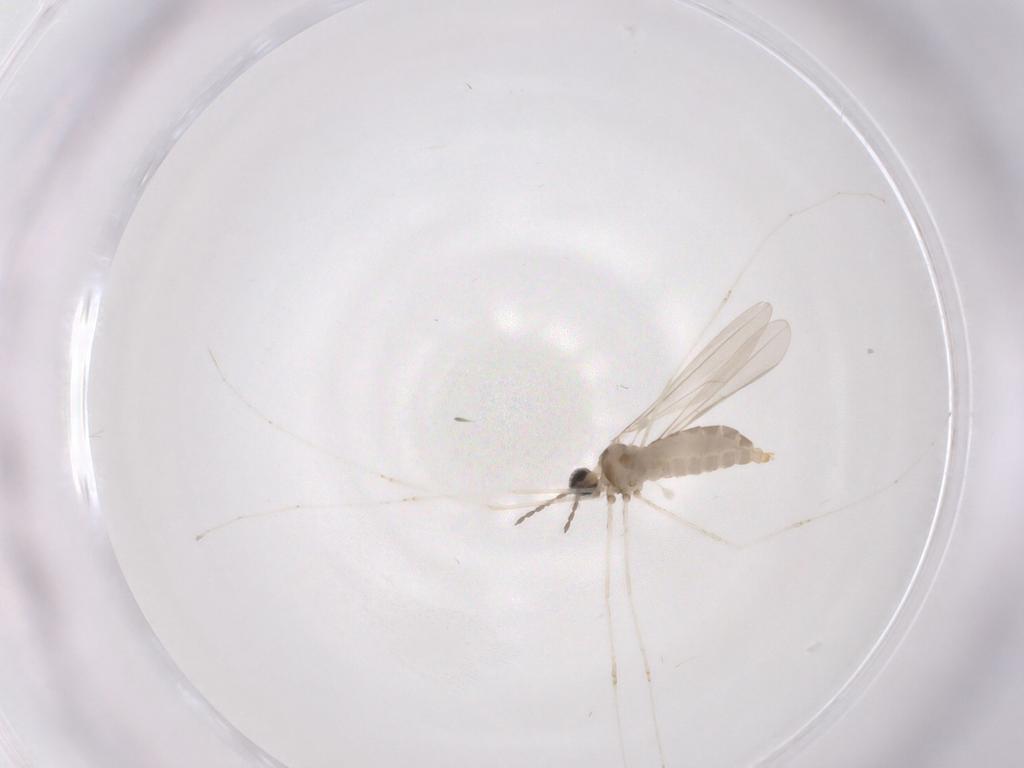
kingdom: Animalia
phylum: Arthropoda
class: Insecta
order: Diptera
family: Cecidomyiidae
